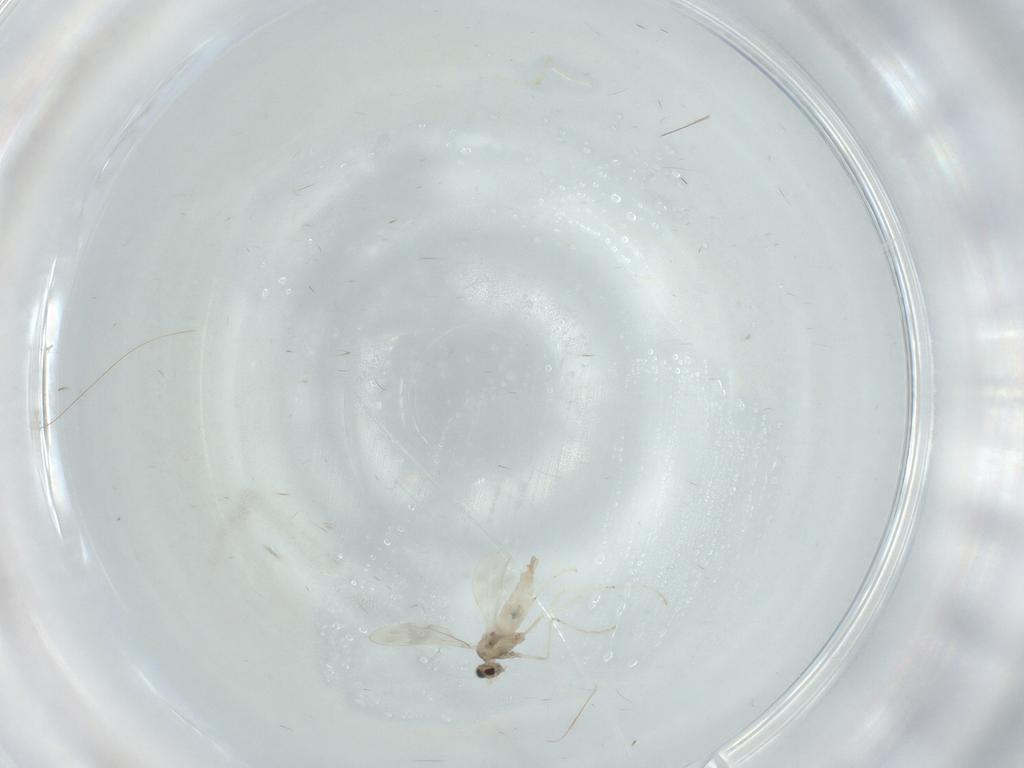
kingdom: Animalia
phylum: Arthropoda
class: Insecta
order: Diptera
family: Cecidomyiidae
